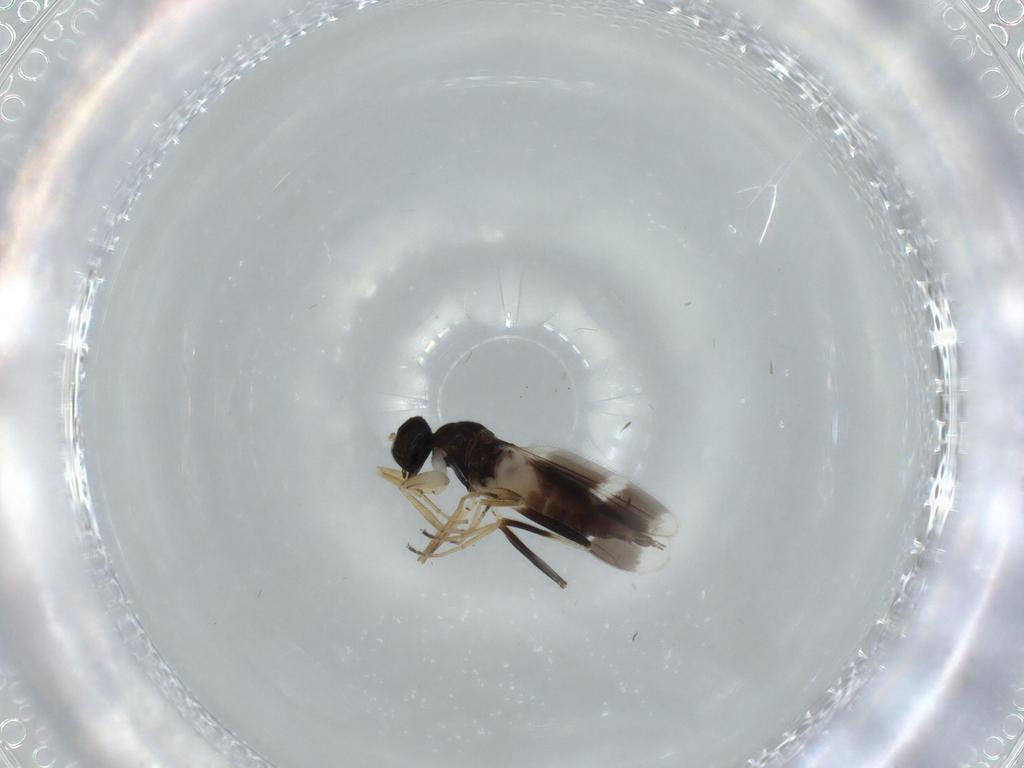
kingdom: Animalia
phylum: Arthropoda
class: Insecta
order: Diptera
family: Hybotidae
